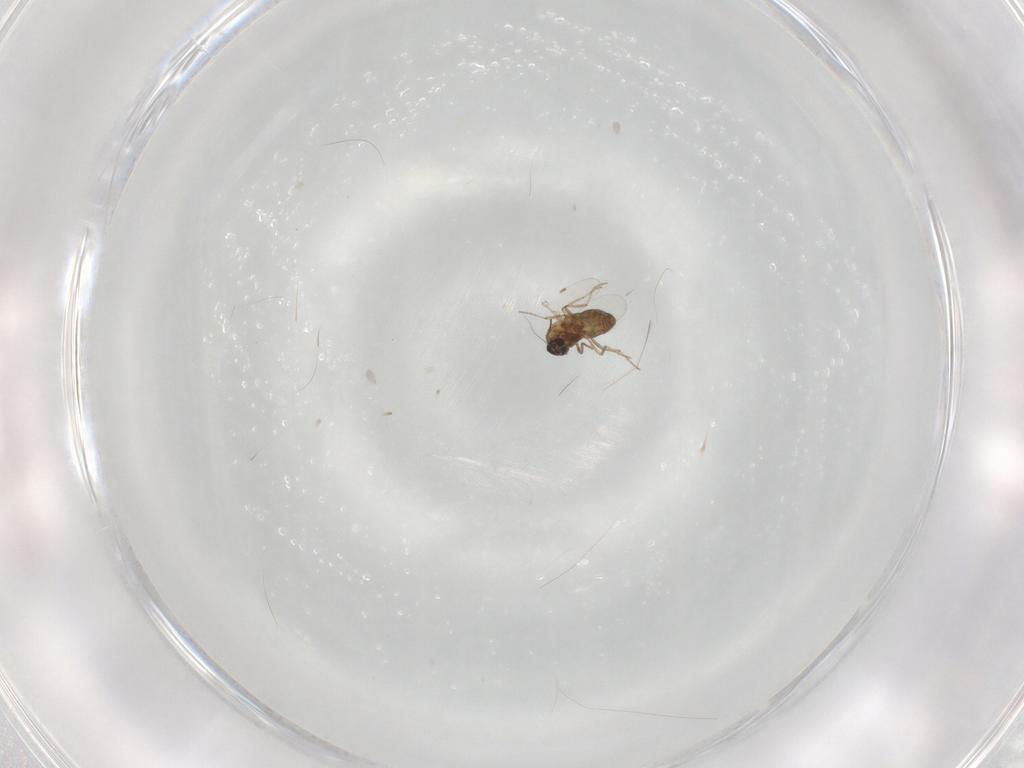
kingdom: Animalia
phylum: Arthropoda
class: Insecta
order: Diptera
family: Ceratopogonidae
